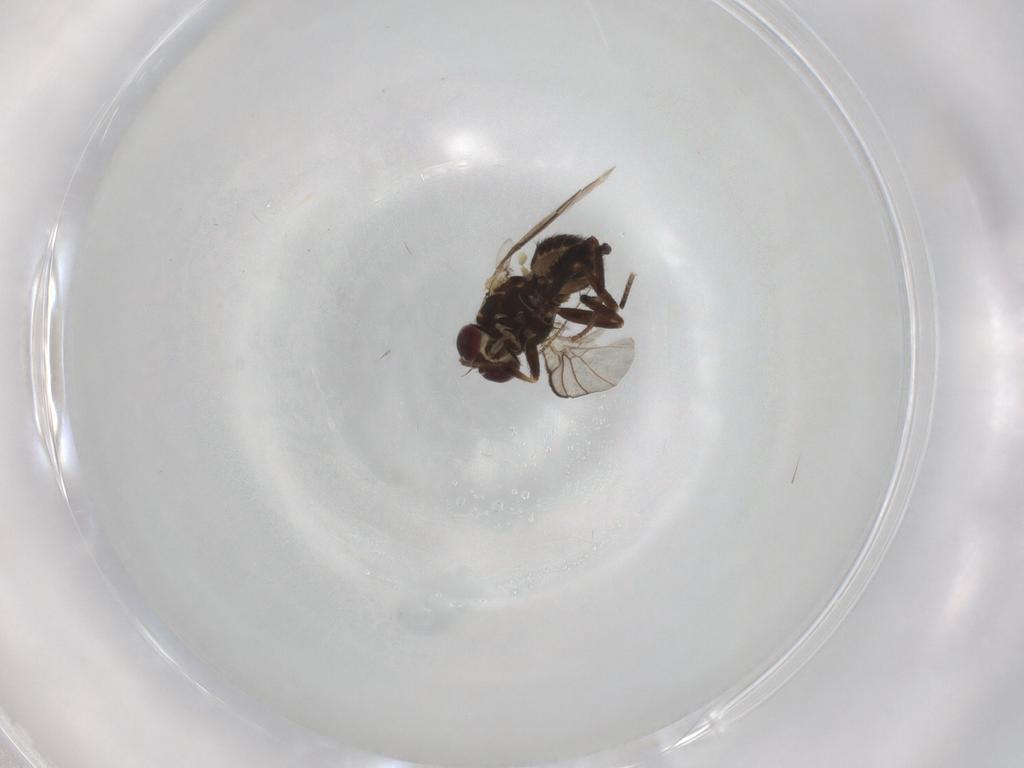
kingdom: Animalia
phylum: Arthropoda
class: Insecta
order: Diptera
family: Agromyzidae
